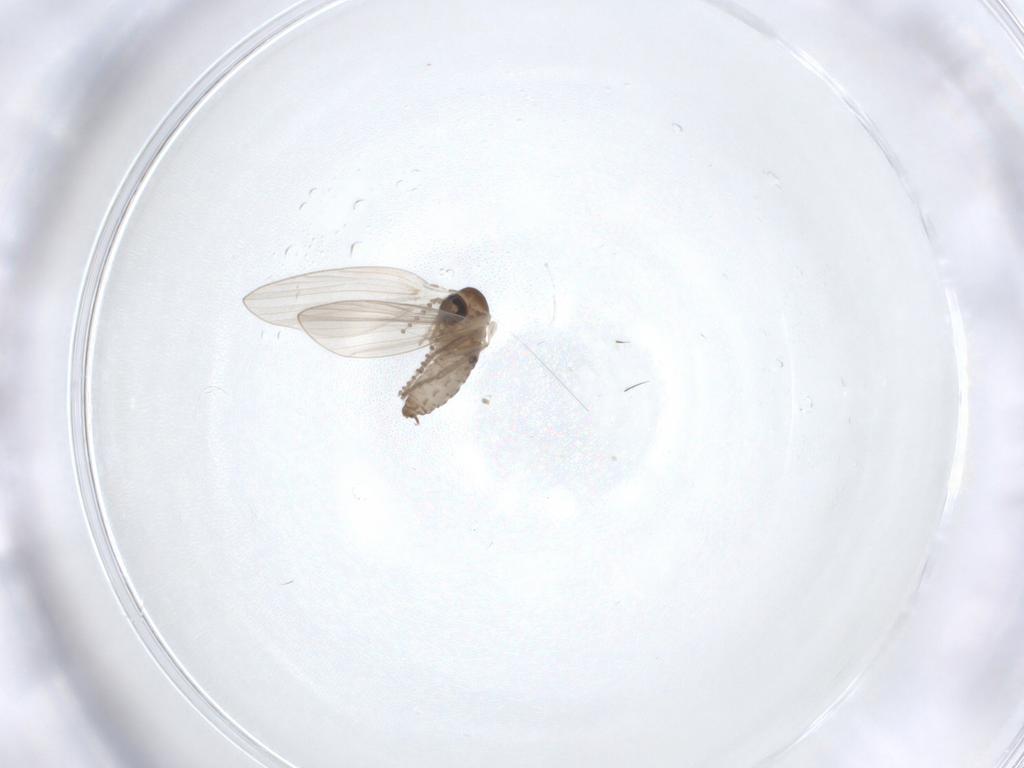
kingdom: Animalia
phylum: Arthropoda
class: Insecta
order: Diptera
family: Psychodidae
